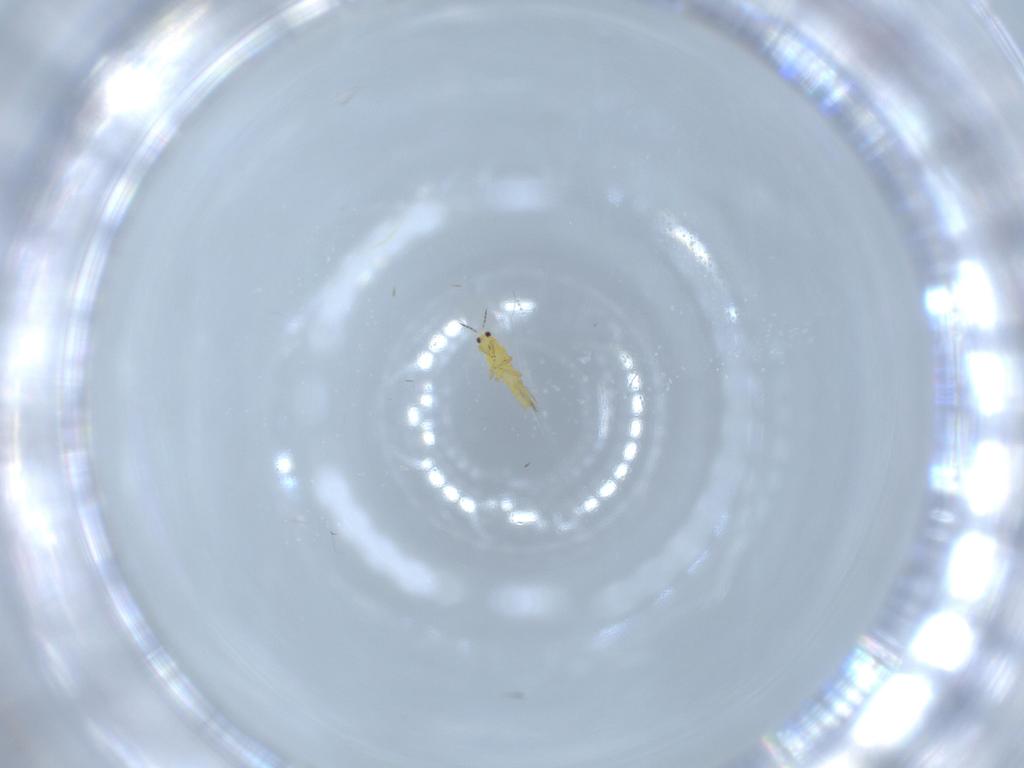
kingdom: Animalia
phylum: Arthropoda
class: Insecta
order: Thysanoptera
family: Thripidae
